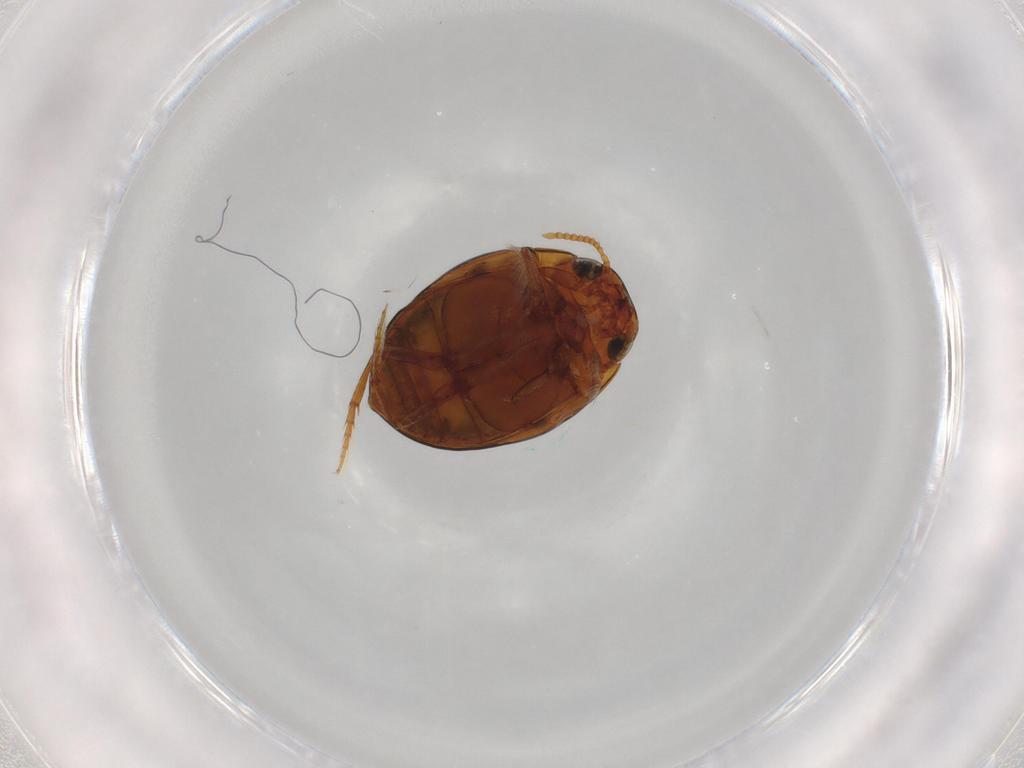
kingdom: Animalia
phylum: Arthropoda
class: Insecta
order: Coleoptera
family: Dytiscidae
